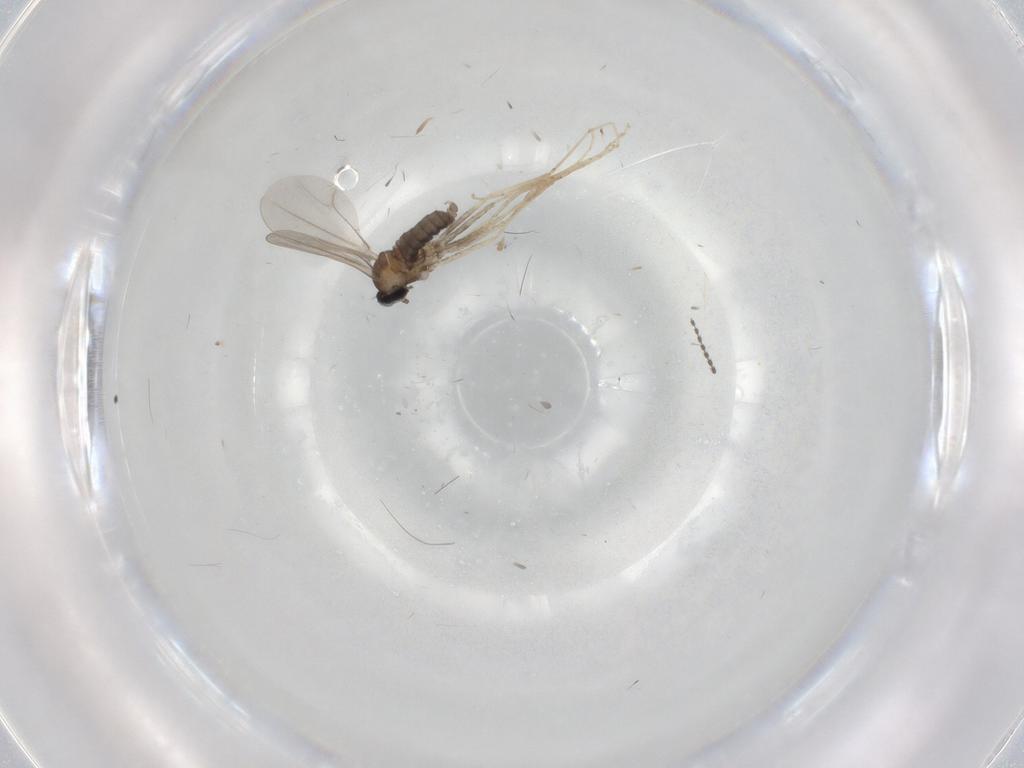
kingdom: Animalia
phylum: Arthropoda
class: Insecta
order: Diptera
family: Cecidomyiidae
